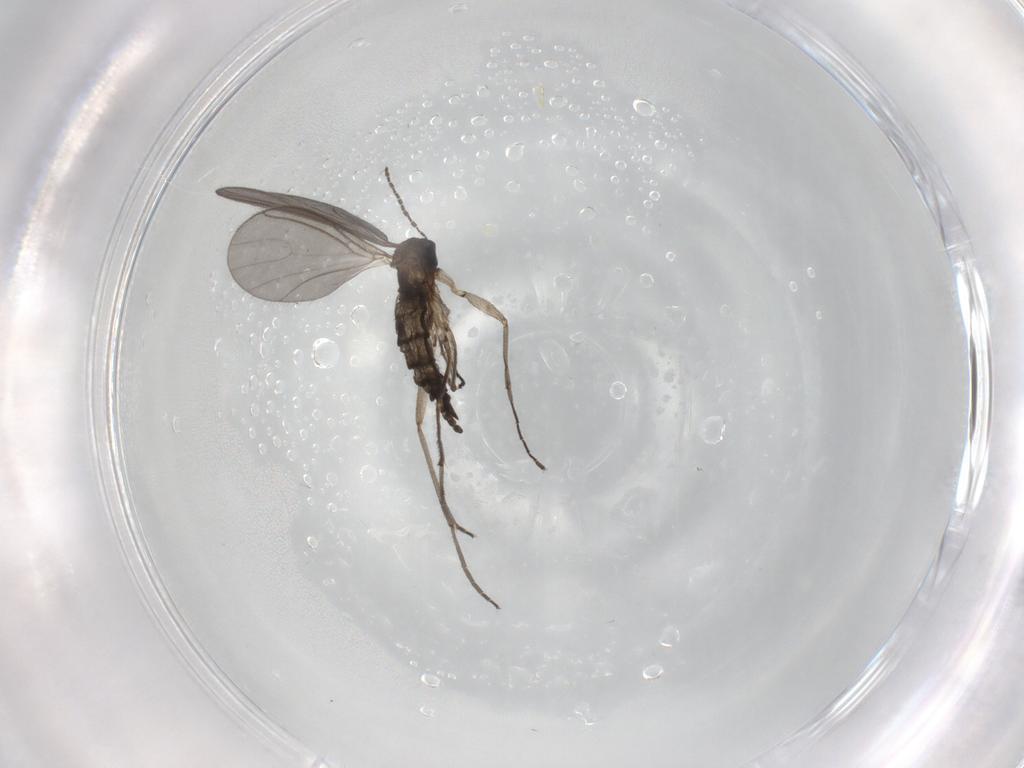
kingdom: Animalia
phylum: Arthropoda
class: Insecta
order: Diptera
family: Sciaridae
